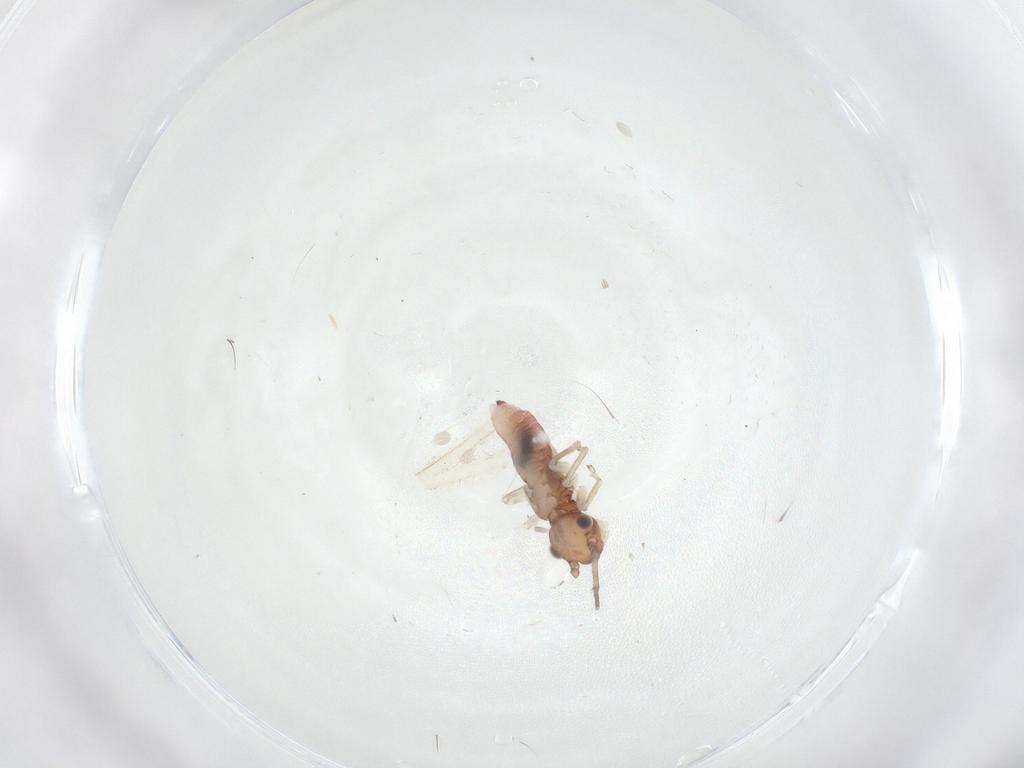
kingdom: Animalia
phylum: Arthropoda
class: Insecta
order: Psocodea
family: Caeciliusidae
